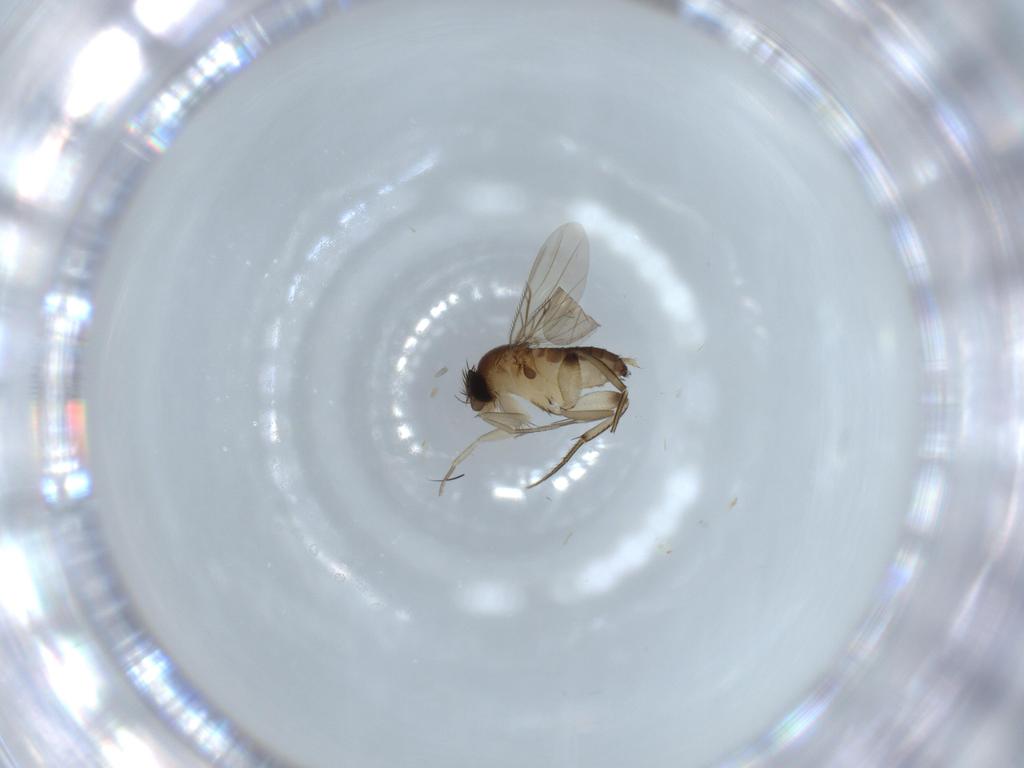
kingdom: Animalia
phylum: Arthropoda
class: Insecta
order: Diptera
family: Phoridae
